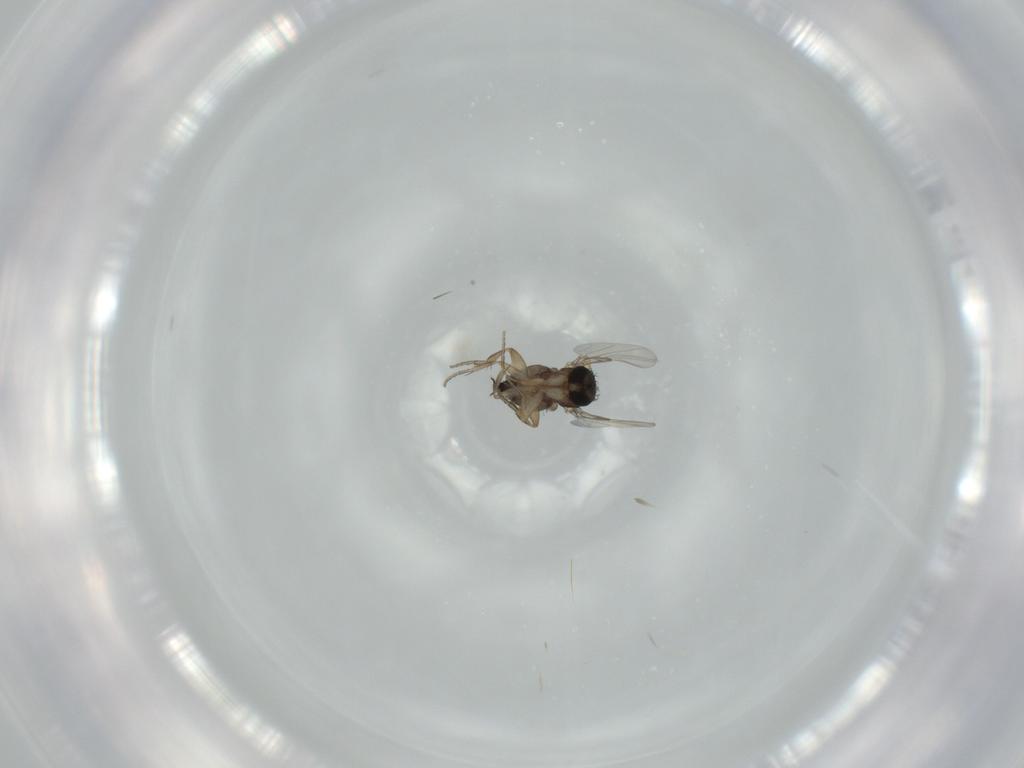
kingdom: Animalia
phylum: Arthropoda
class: Insecta
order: Diptera
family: Phoridae
